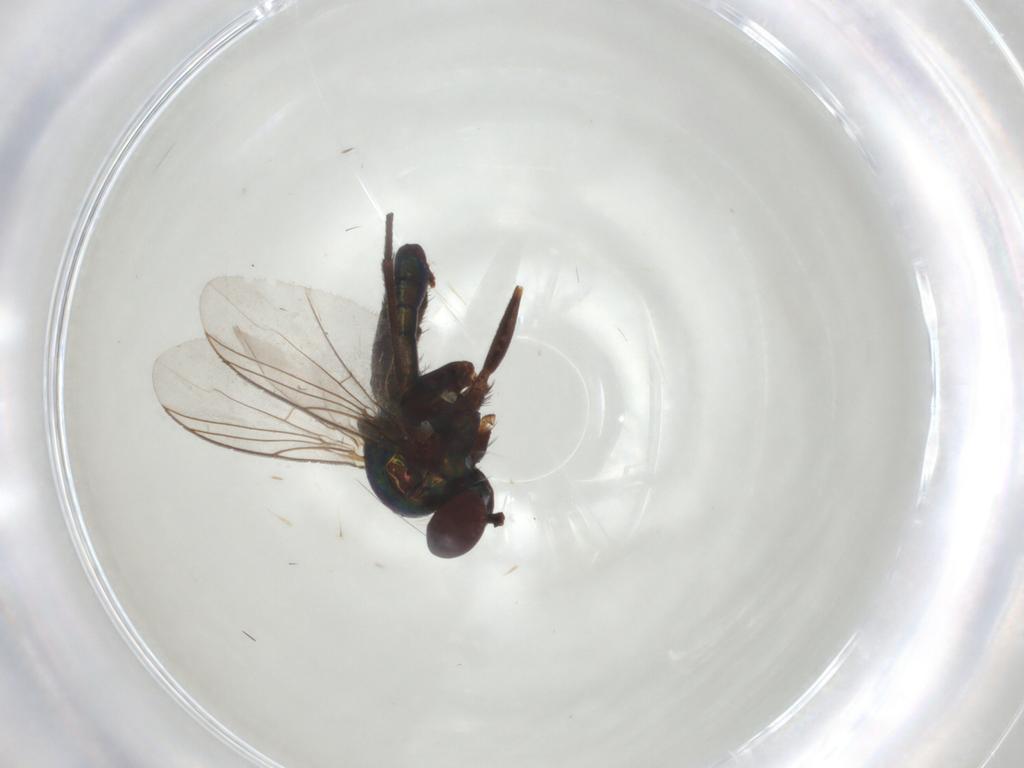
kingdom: Animalia
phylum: Arthropoda
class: Insecta
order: Diptera
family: Dolichopodidae
